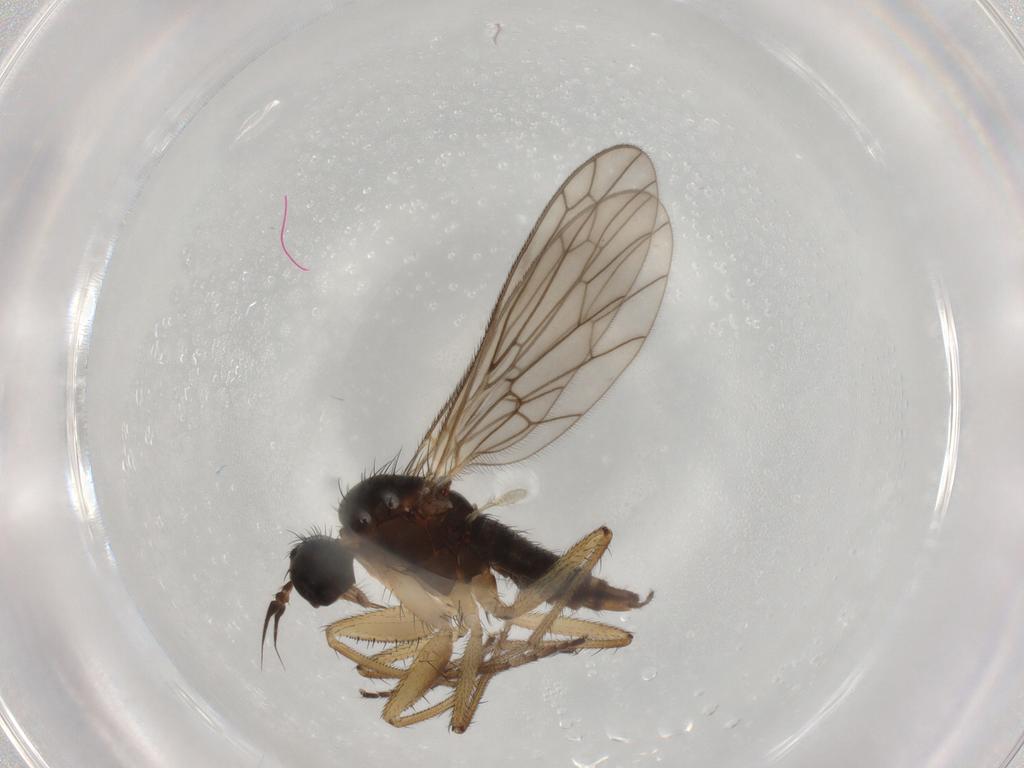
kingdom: Animalia
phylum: Arthropoda
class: Insecta
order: Diptera
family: Empididae
